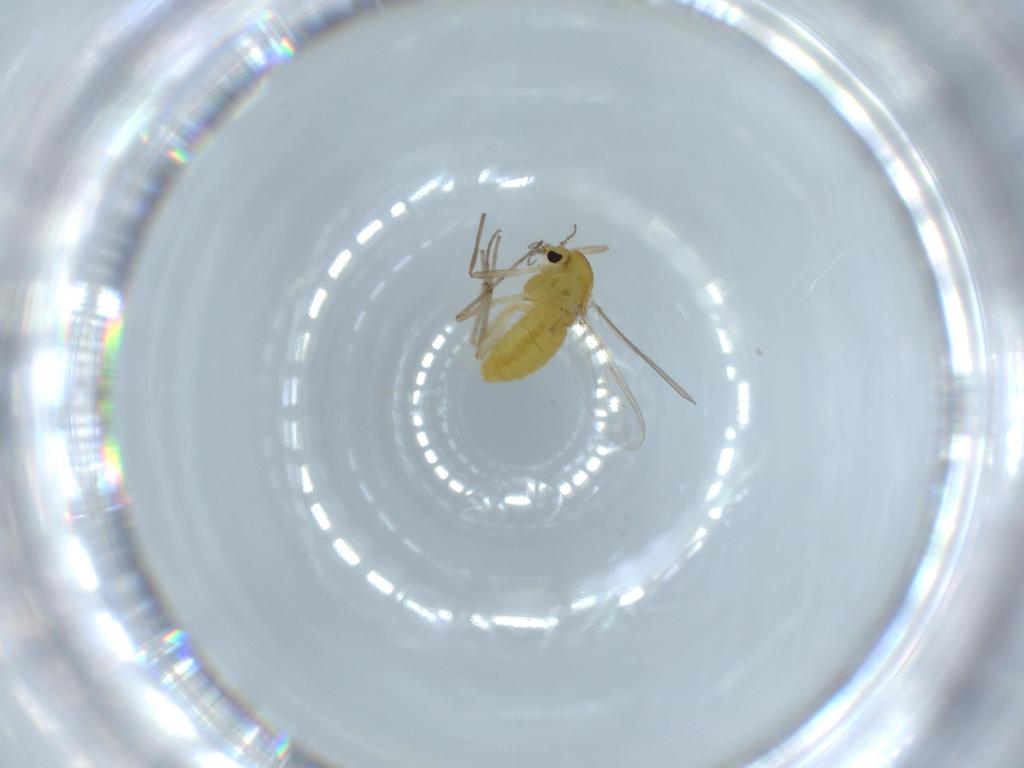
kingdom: Animalia
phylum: Arthropoda
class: Insecta
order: Diptera
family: Chironomidae
